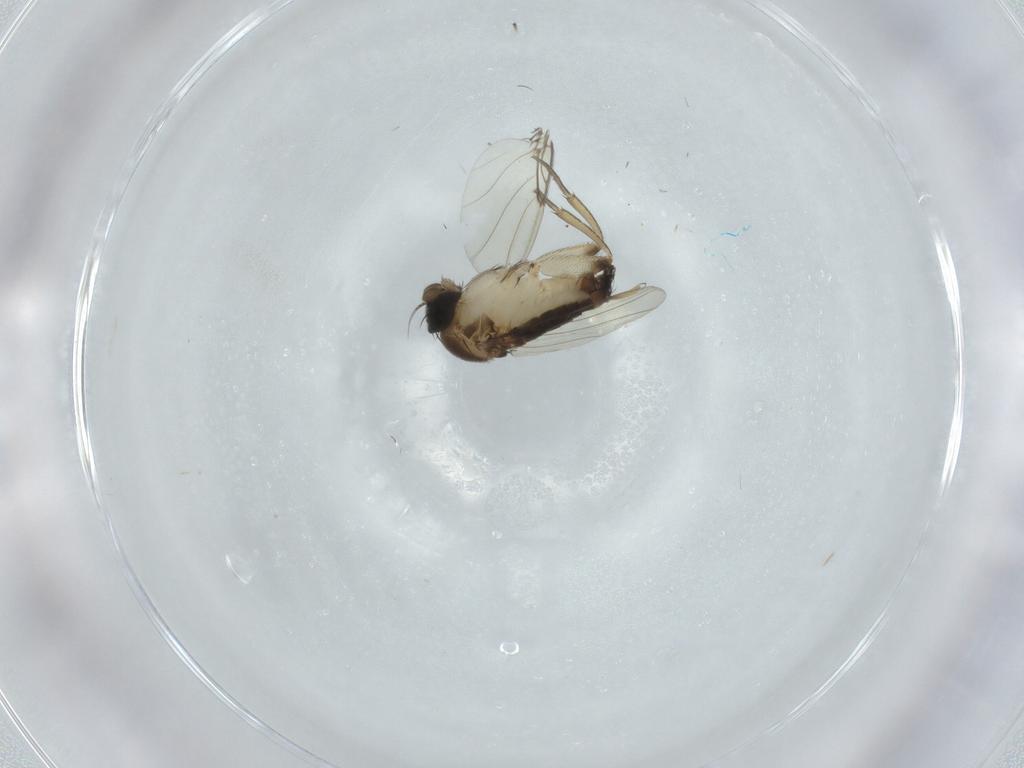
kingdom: Animalia
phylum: Arthropoda
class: Insecta
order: Diptera
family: Phoridae
